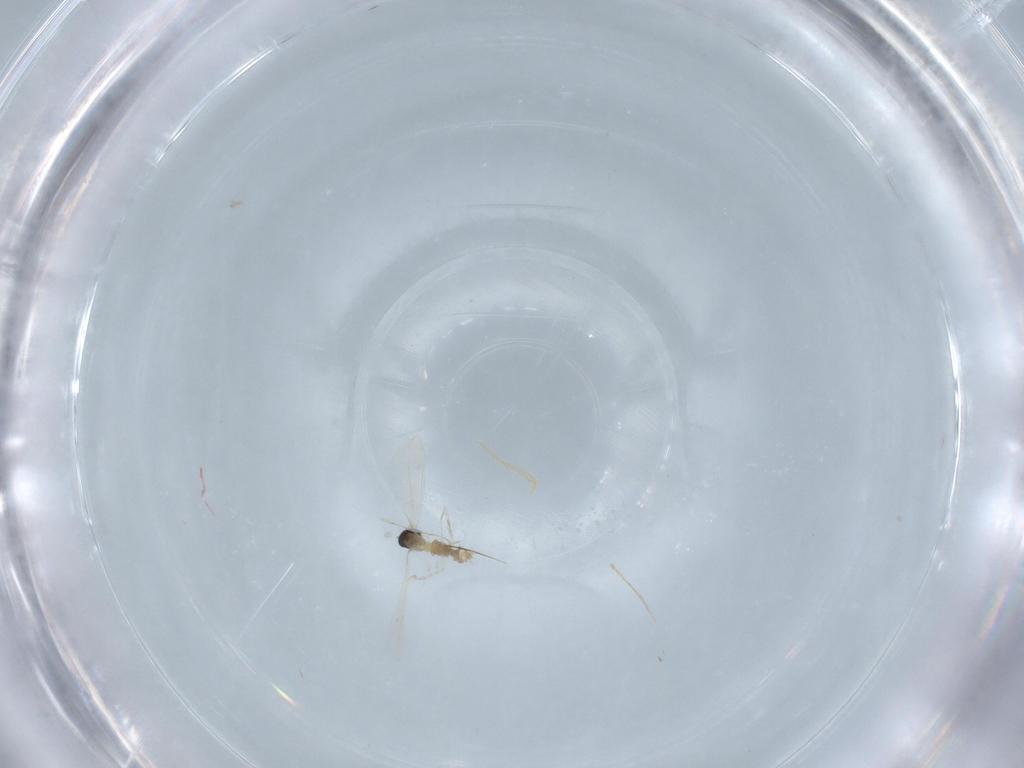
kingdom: Animalia
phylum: Arthropoda
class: Insecta
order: Diptera
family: Cecidomyiidae
